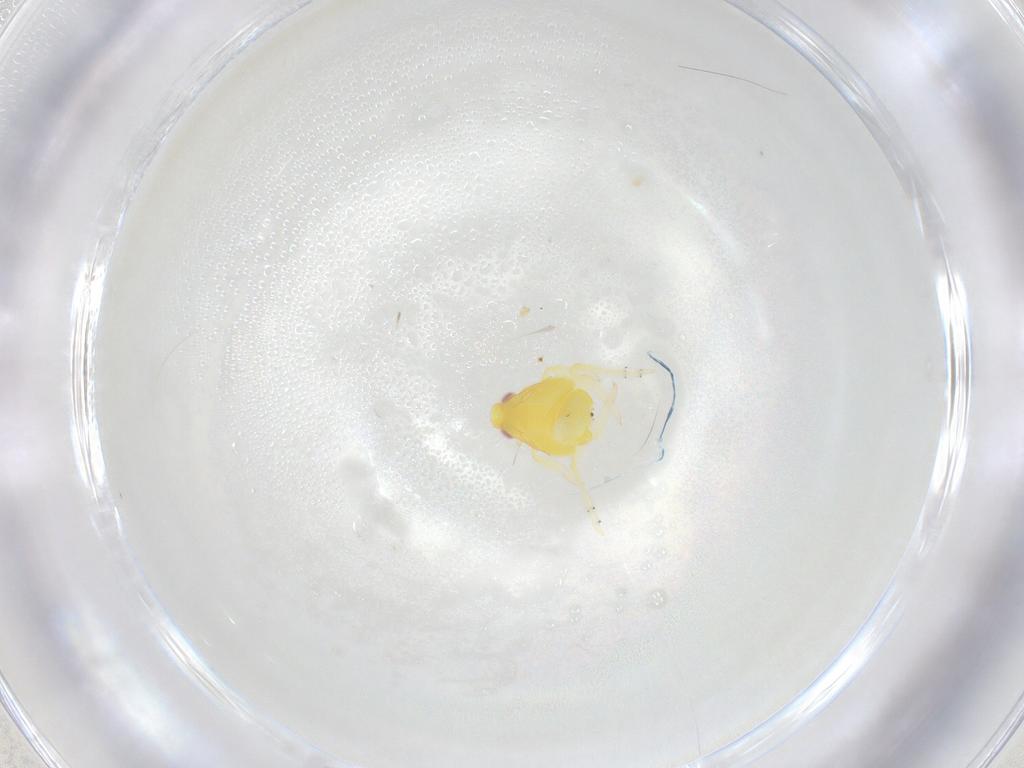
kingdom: Animalia
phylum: Arthropoda
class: Insecta
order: Hemiptera
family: Tropiduchidae
